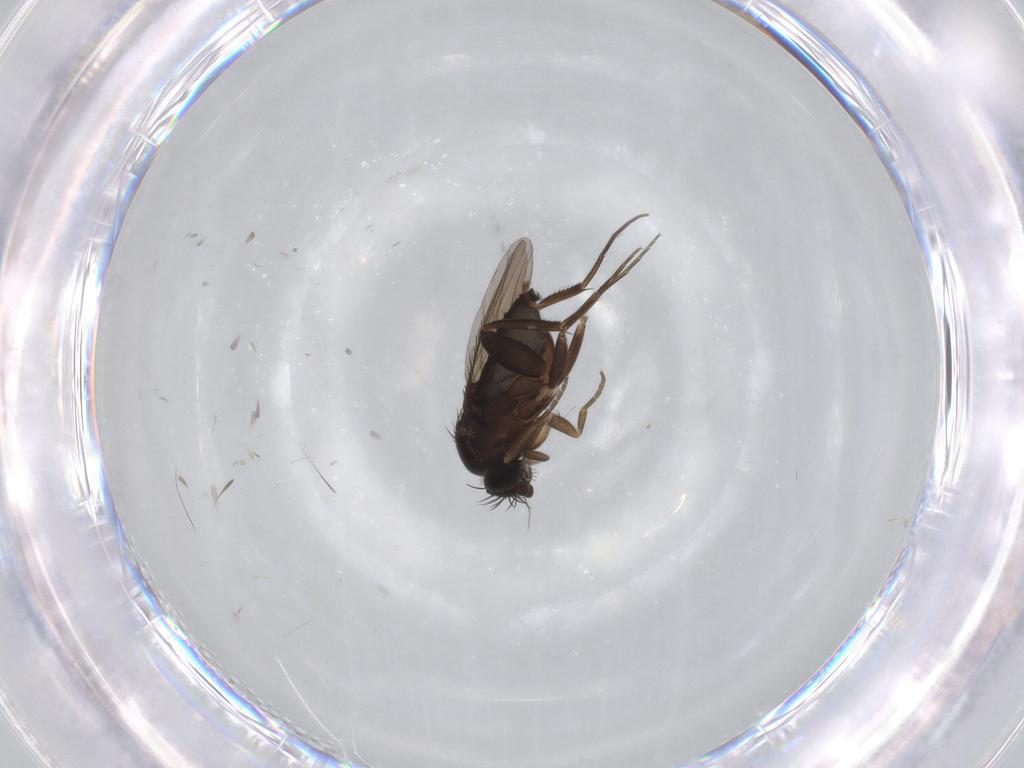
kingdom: Animalia
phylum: Arthropoda
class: Insecta
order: Diptera
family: Phoridae
